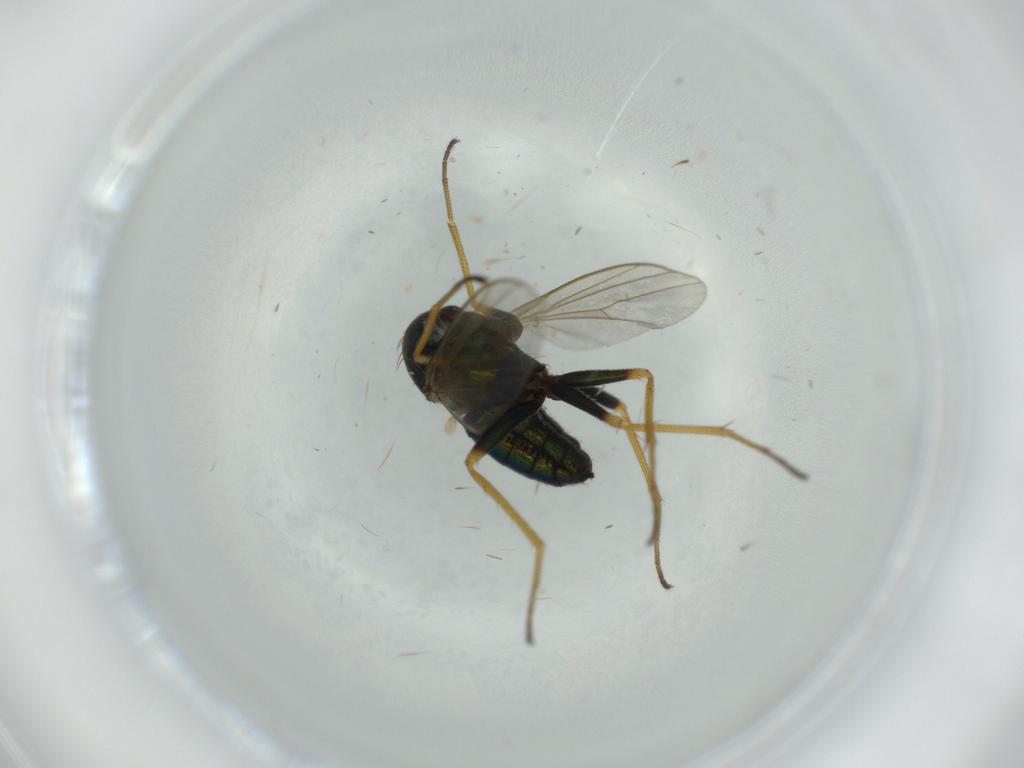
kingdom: Animalia
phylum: Arthropoda
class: Insecta
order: Diptera
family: Dolichopodidae
